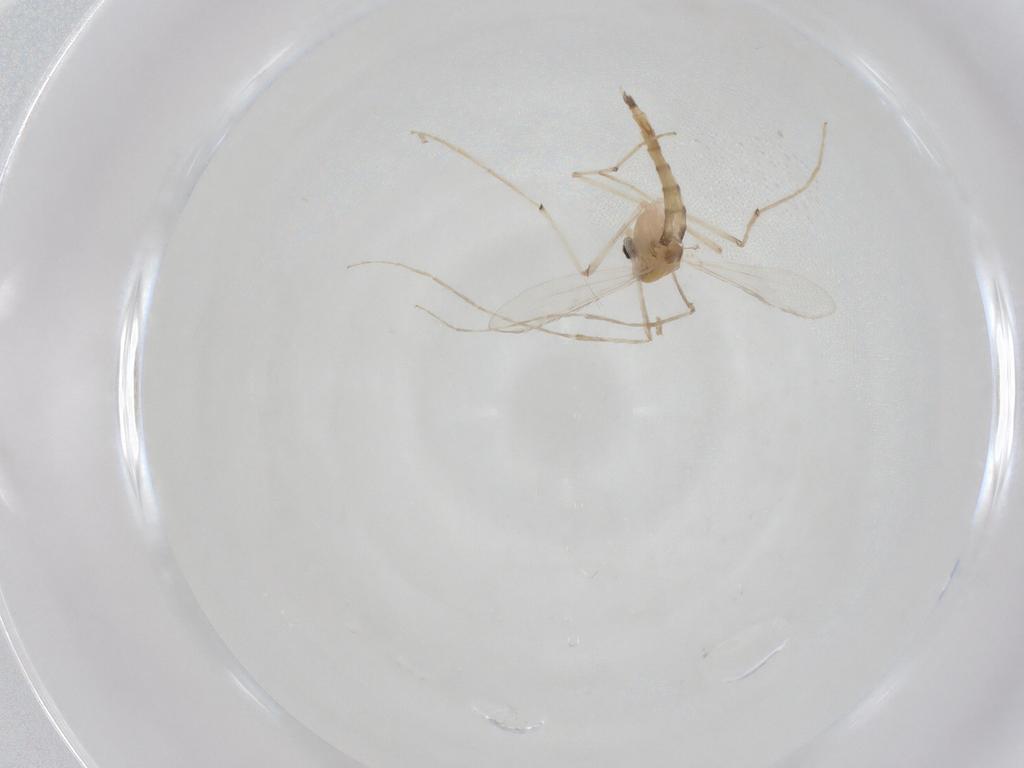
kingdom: Animalia
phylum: Arthropoda
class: Insecta
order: Diptera
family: Chironomidae
